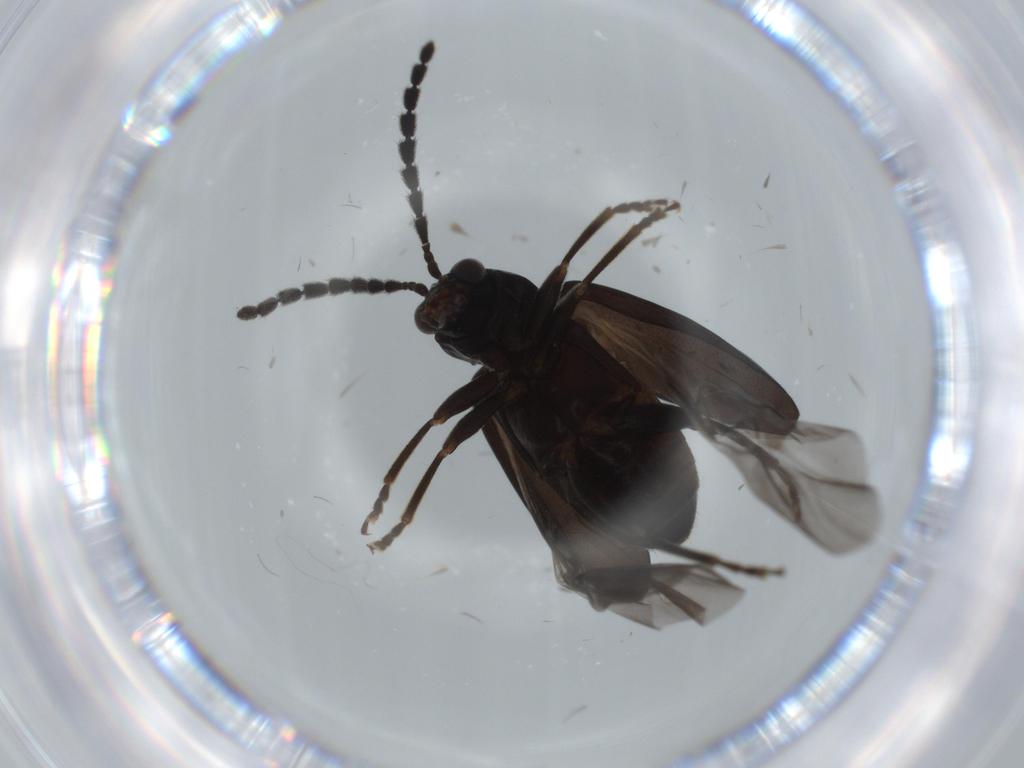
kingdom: Animalia
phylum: Arthropoda
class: Insecta
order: Coleoptera
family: Chrysomelidae
